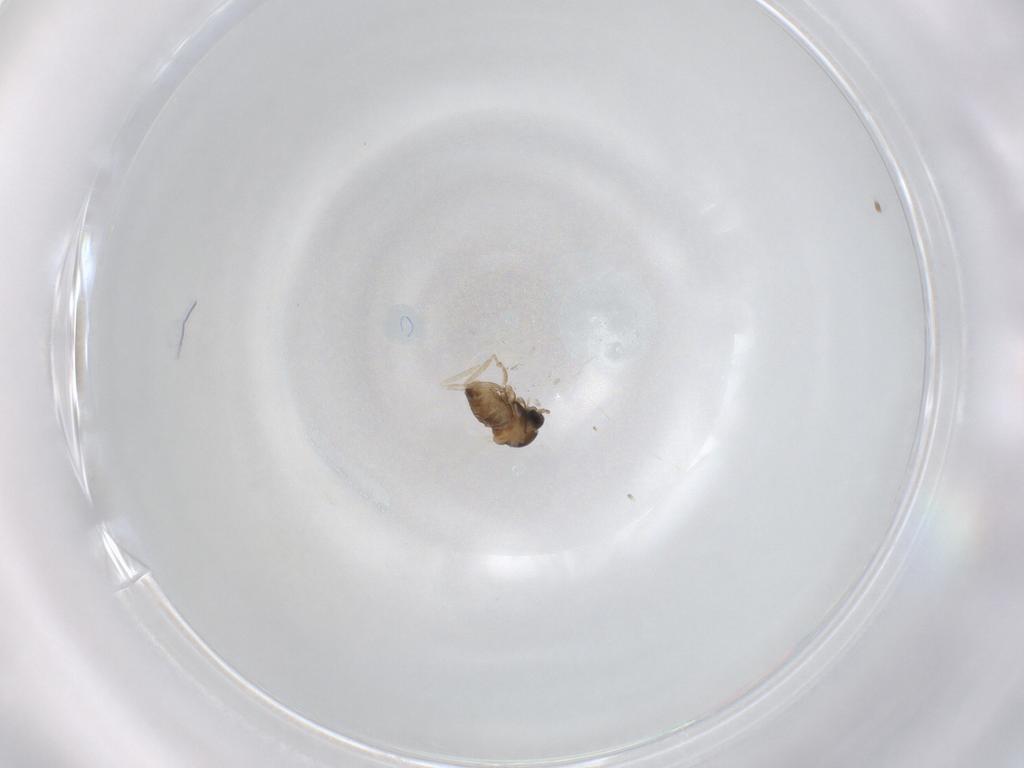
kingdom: Animalia
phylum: Arthropoda
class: Insecta
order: Diptera
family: Cecidomyiidae
